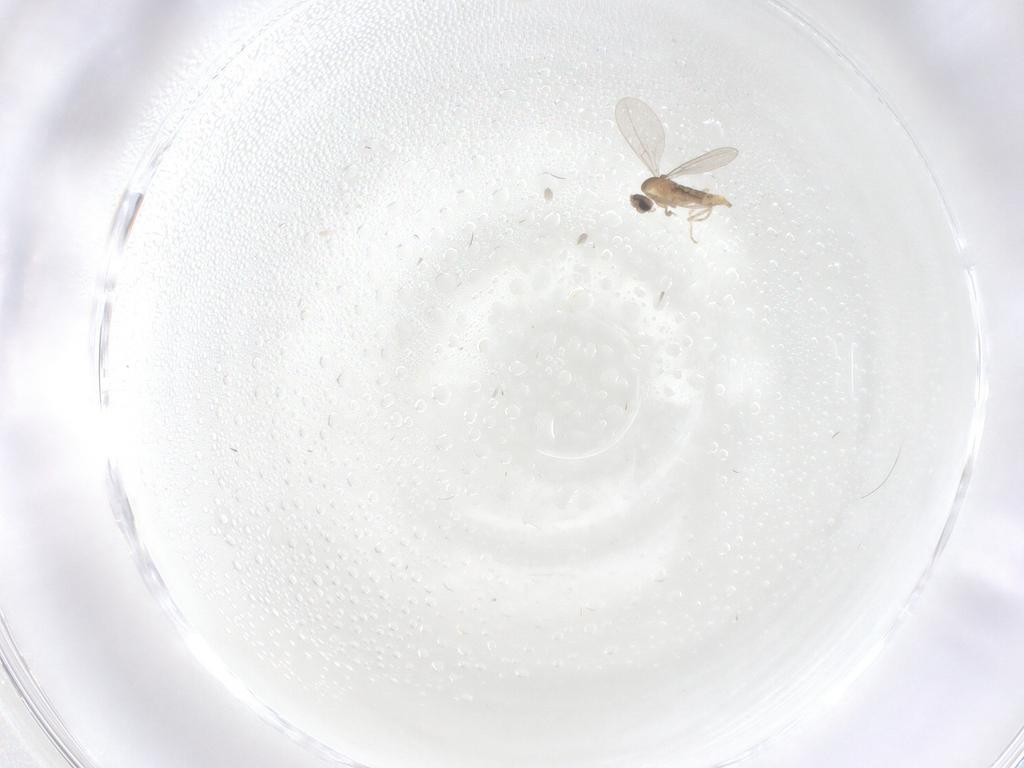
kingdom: Animalia
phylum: Arthropoda
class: Insecta
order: Diptera
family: Cecidomyiidae
